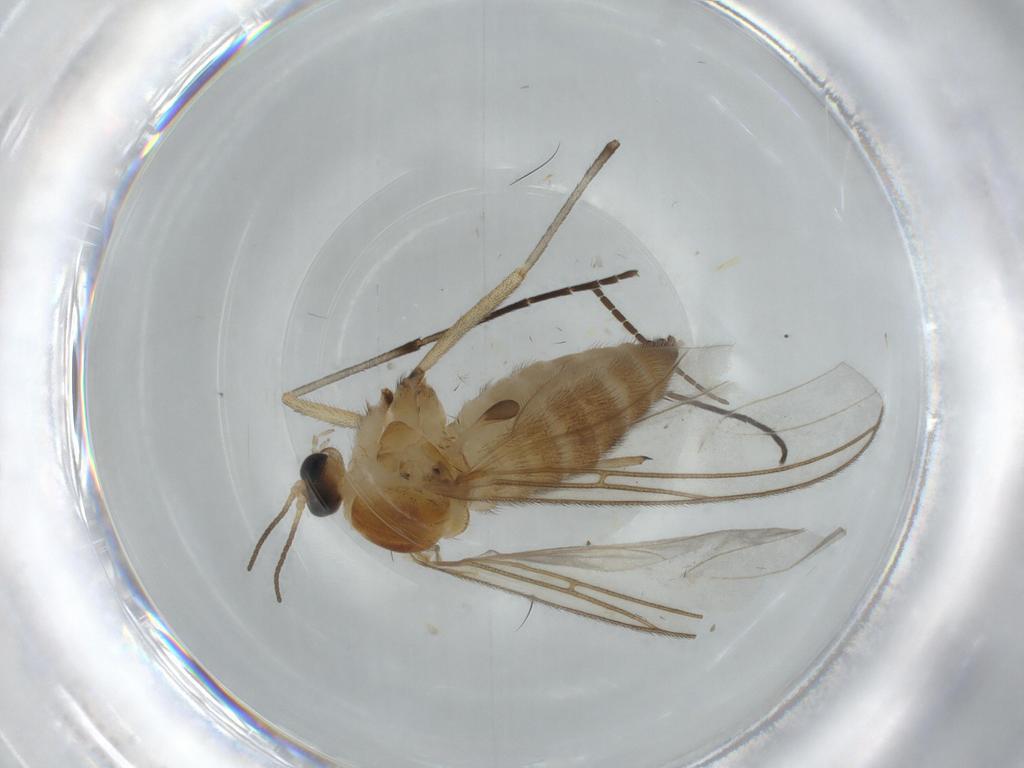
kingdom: Animalia
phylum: Arthropoda
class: Insecta
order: Diptera
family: Sciaridae
